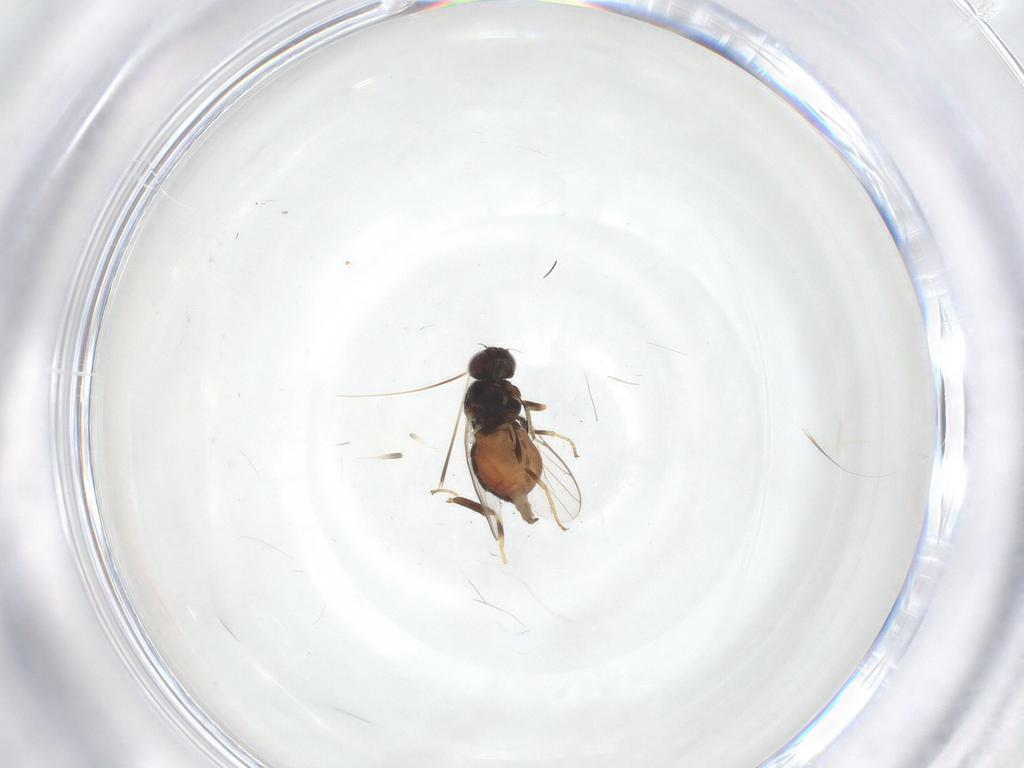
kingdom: Animalia
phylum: Arthropoda
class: Insecta
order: Diptera
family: Chloropidae
